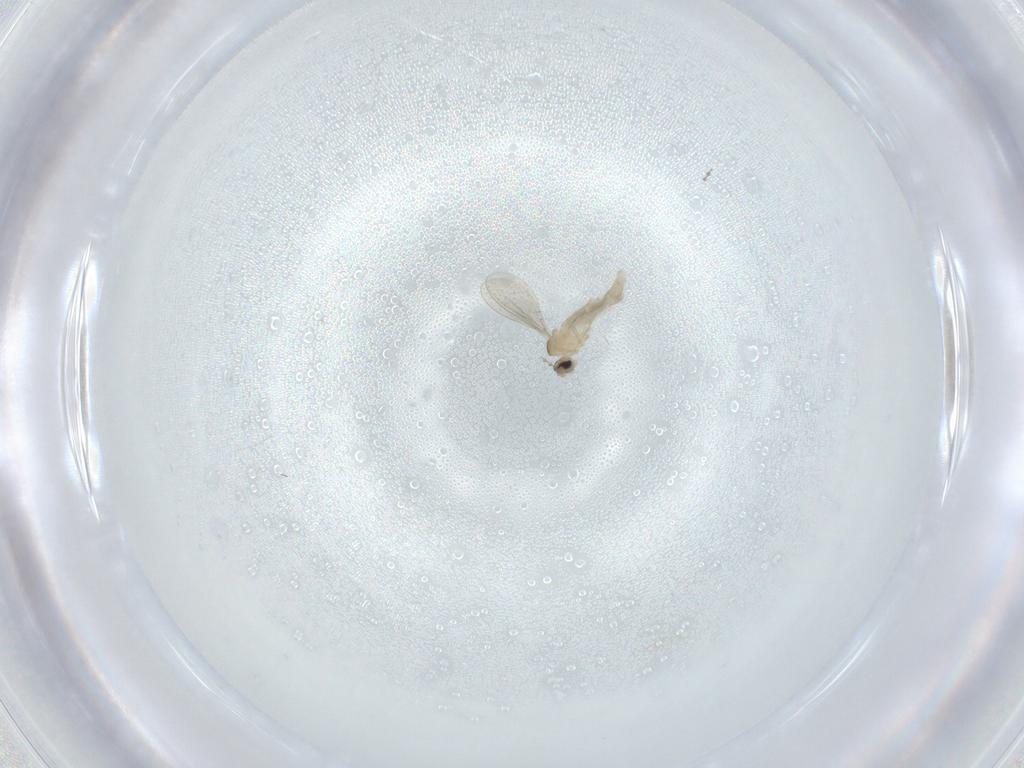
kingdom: Animalia
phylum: Arthropoda
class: Insecta
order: Diptera
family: Cecidomyiidae
